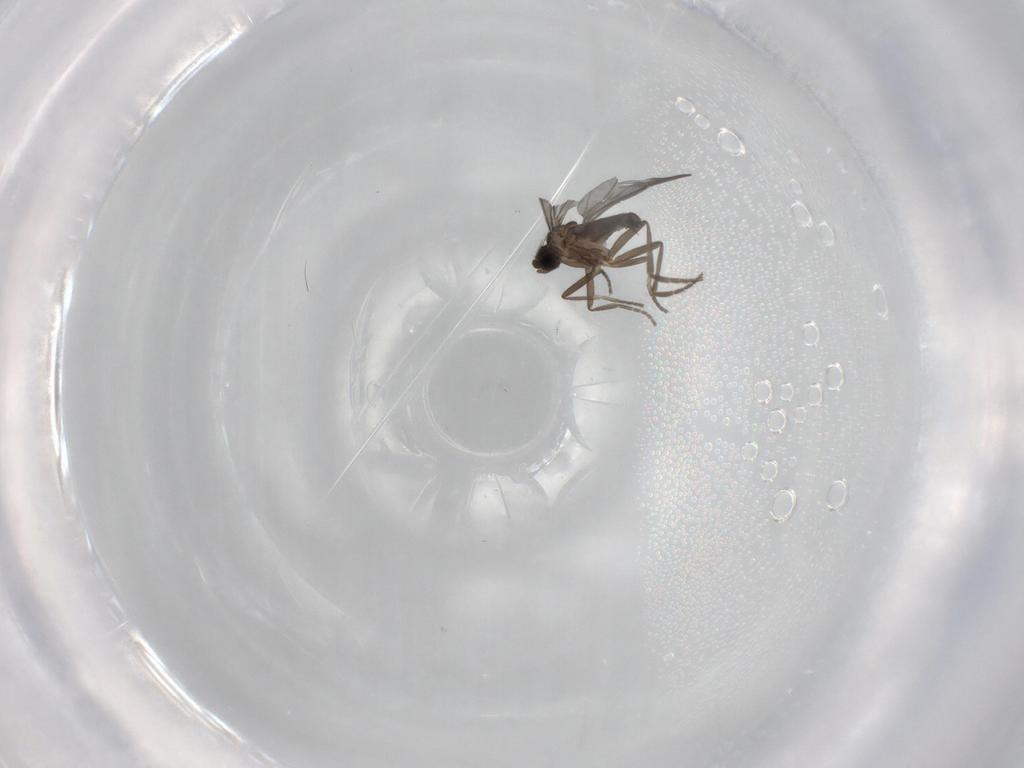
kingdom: Animalia
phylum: Arthropoda
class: Insecta
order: Diptera
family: Phoridae
